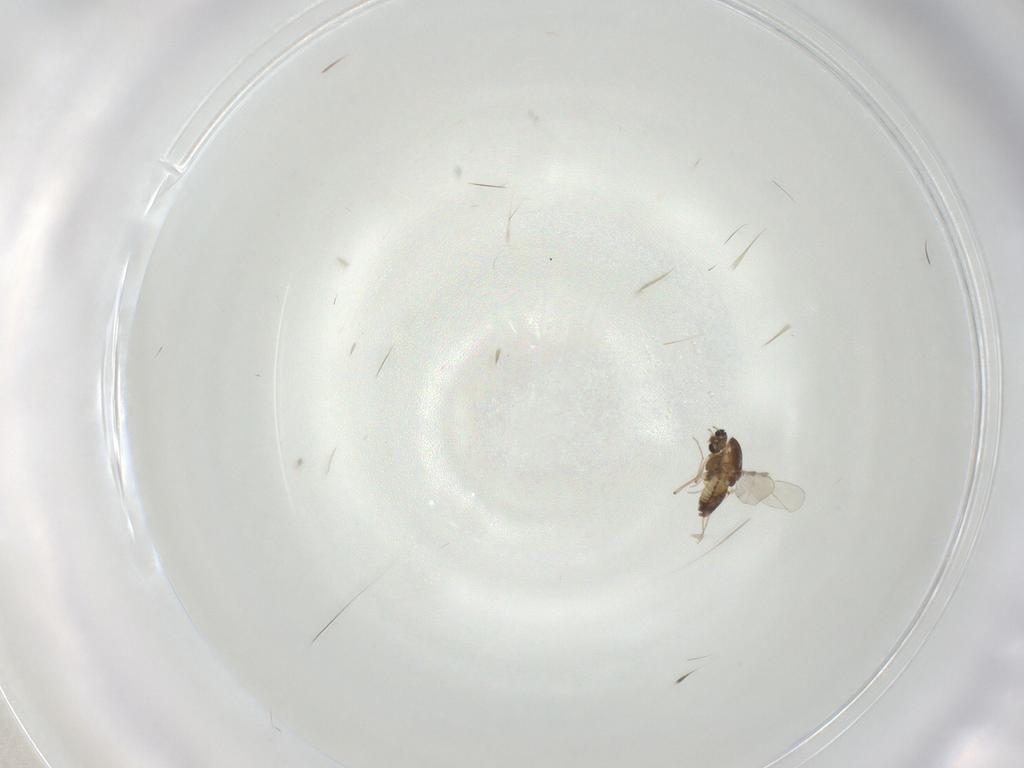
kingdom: Animalia
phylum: Arthropoda
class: Insecta
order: Diptera
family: Chironomidae
